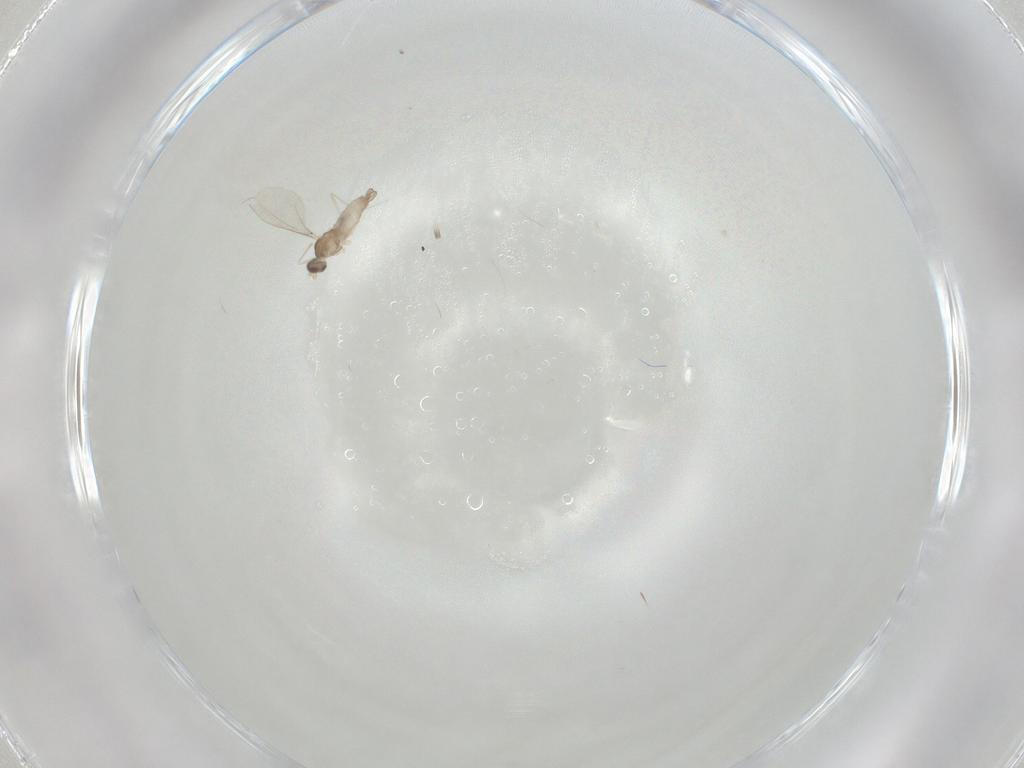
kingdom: Animalia
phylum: Arthropoda
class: Insecta
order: Diptera
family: Cecidomyiidae
